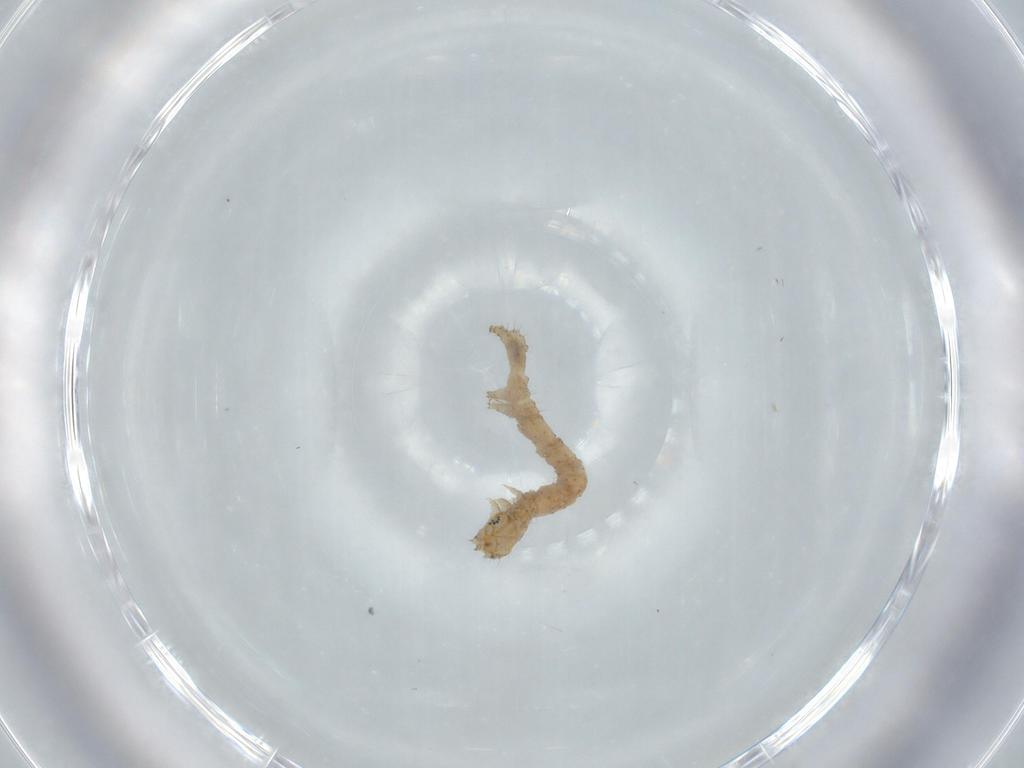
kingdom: Animalia
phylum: Arthropoda
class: Insecta
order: Lepidoptera
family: Erebidae
